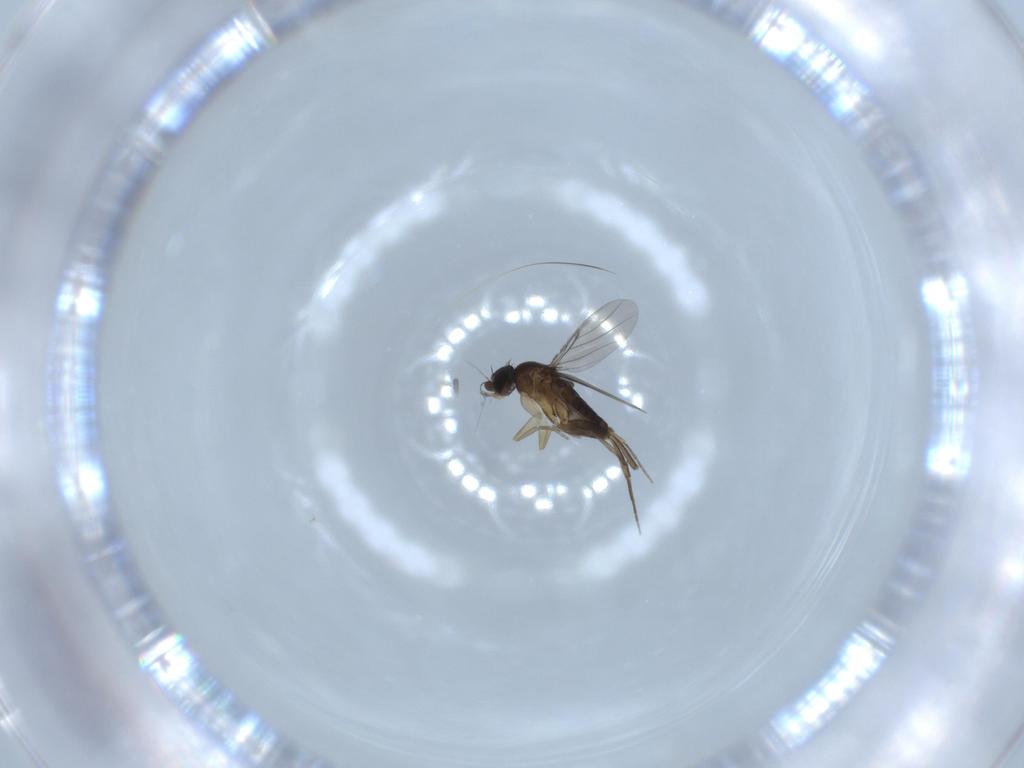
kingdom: Animalia
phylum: Arthropoda
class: Insecta
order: Diptera
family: Phoridae
